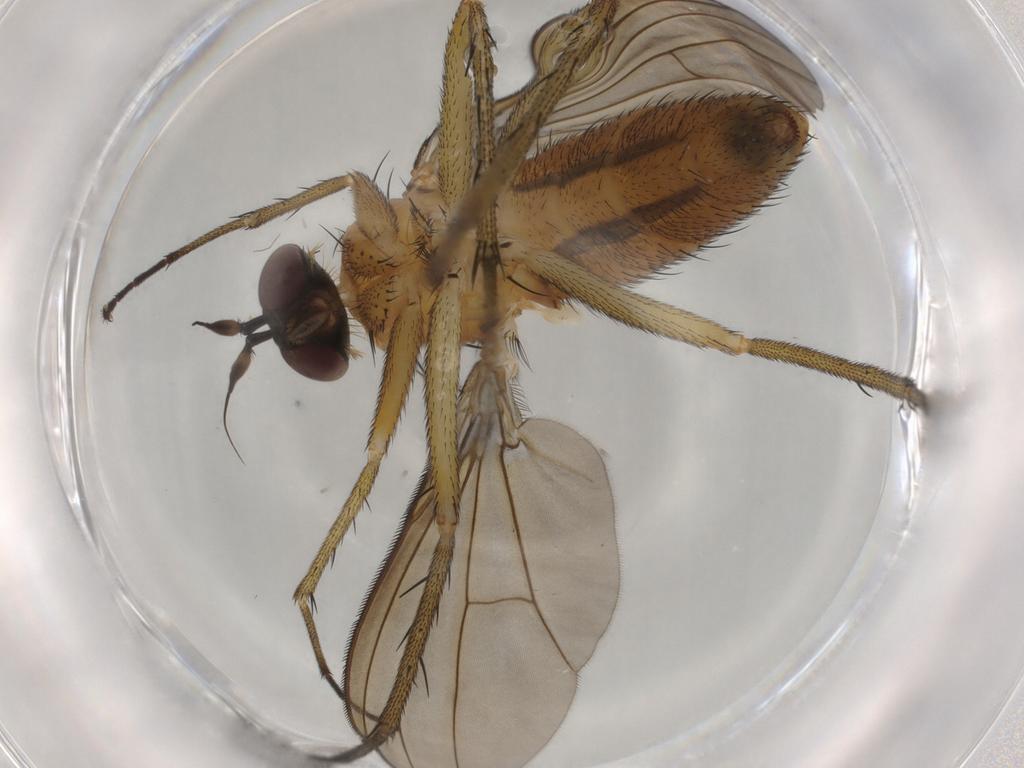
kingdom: Animalia
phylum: Arthropoda
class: Insecta
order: Diptera
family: Dolichopodidae
